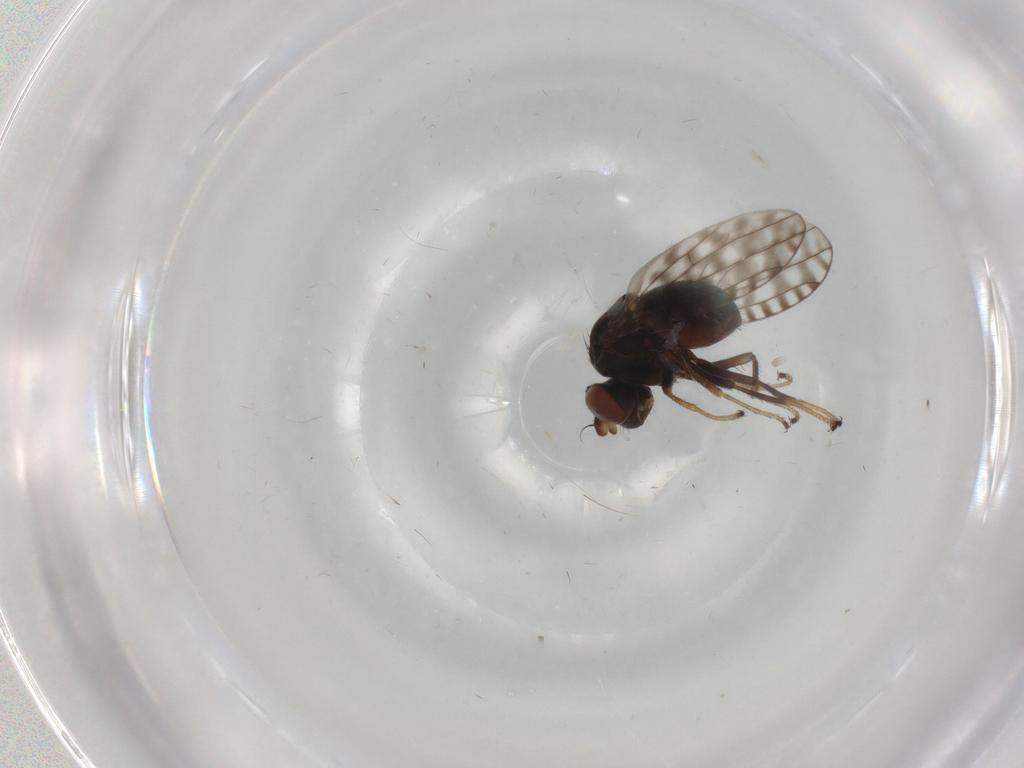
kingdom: Animalia
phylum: Arthropoda
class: Insecta
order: Diptera
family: Ephydridae
